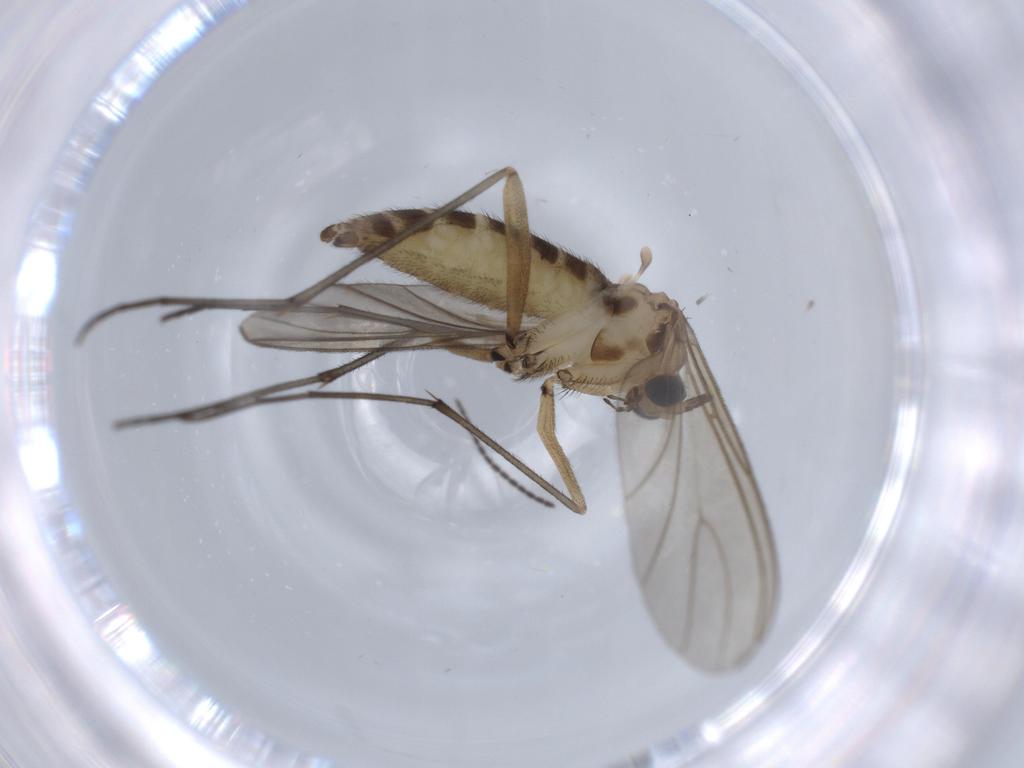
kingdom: Animalia
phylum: Arthropoda
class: Insecta
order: Diptera
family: Sciaridae
